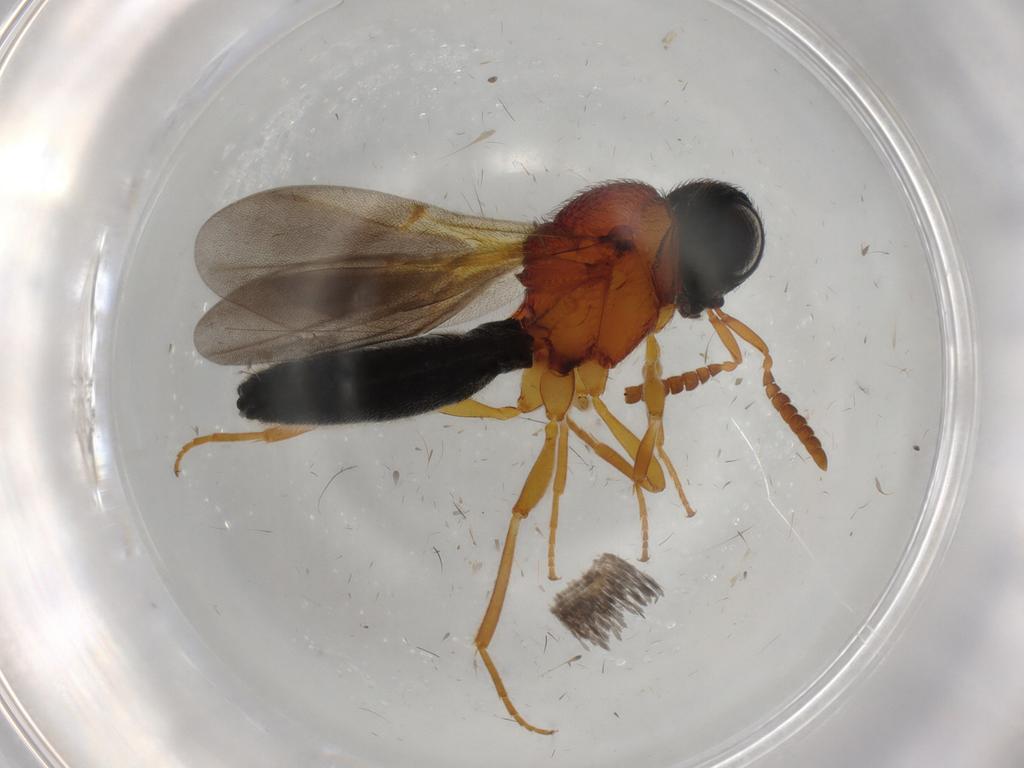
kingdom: Animalia
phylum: Arthropoda
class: Insecta
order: Hymenoptera
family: Scelionidae
